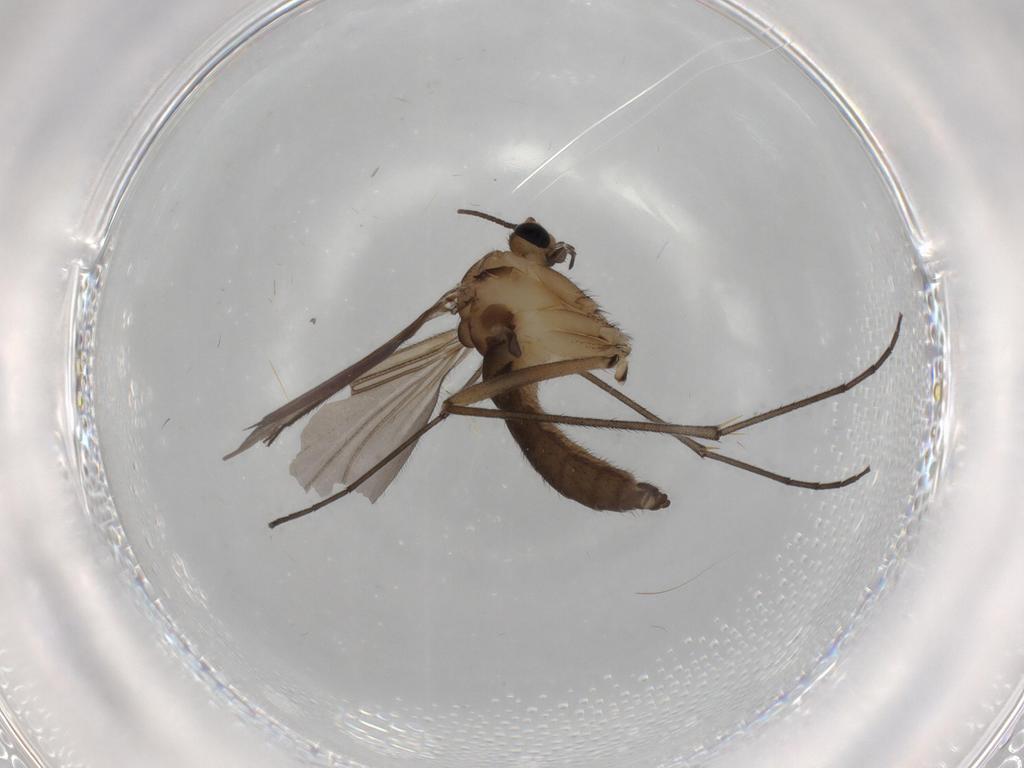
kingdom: Animalia
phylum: Arthropoda
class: Insecta
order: Diptera
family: Sciaridae
